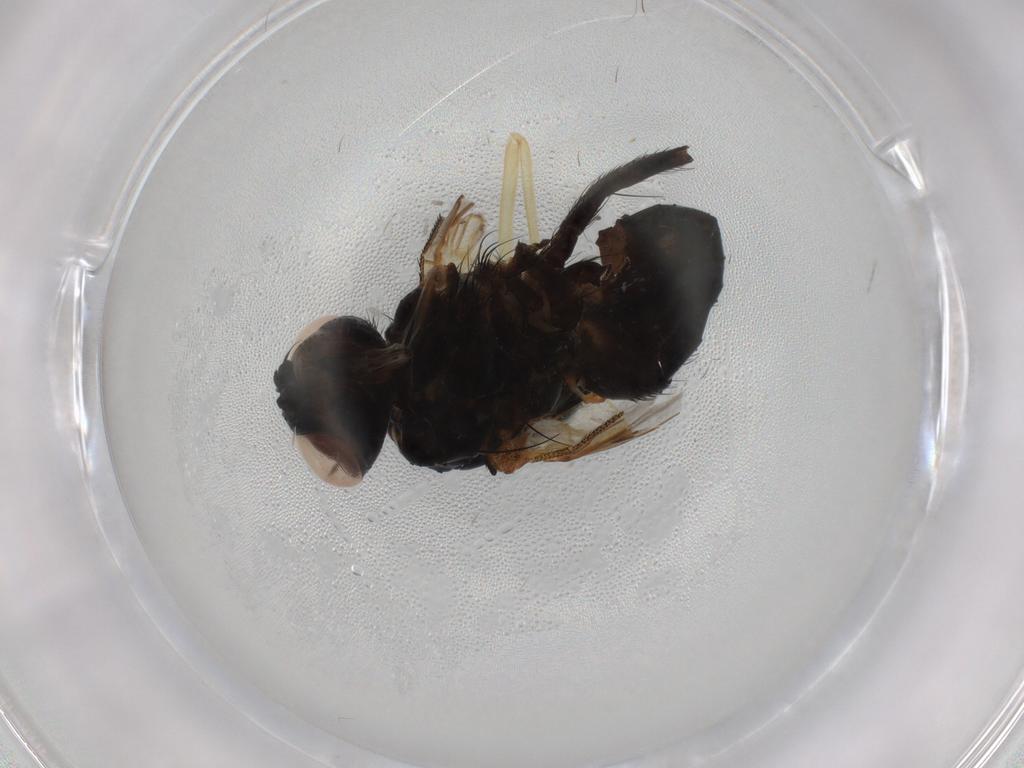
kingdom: Animalia
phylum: Arthropoda
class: Insecta
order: Diptera
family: Tachinidae
